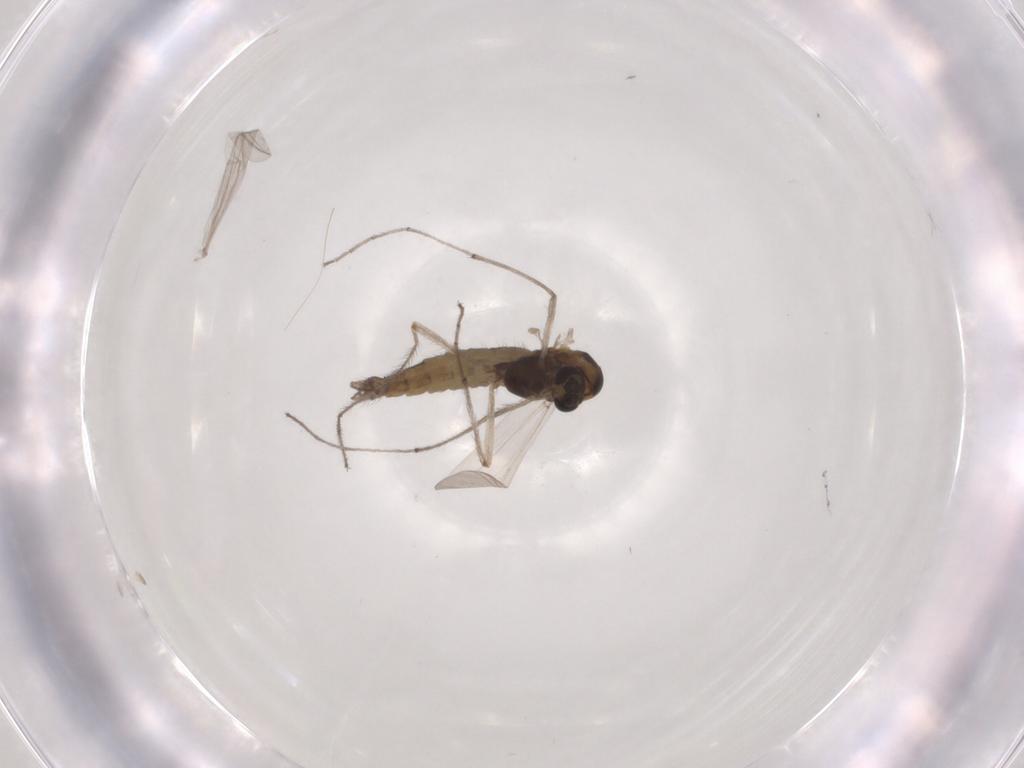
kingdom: Animalia
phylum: Arthropoda
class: Insecta
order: Diptera
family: Chironomidae
